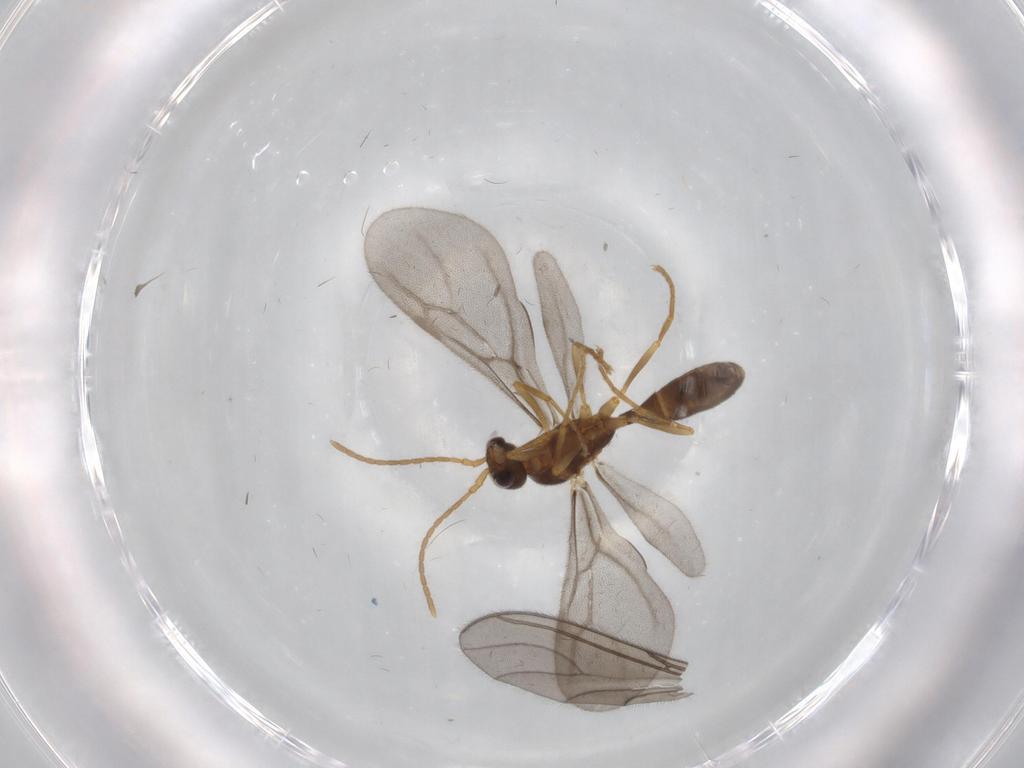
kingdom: Animalia
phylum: Arthropoda
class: Insecta
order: Hymenoptera
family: Formicidae
